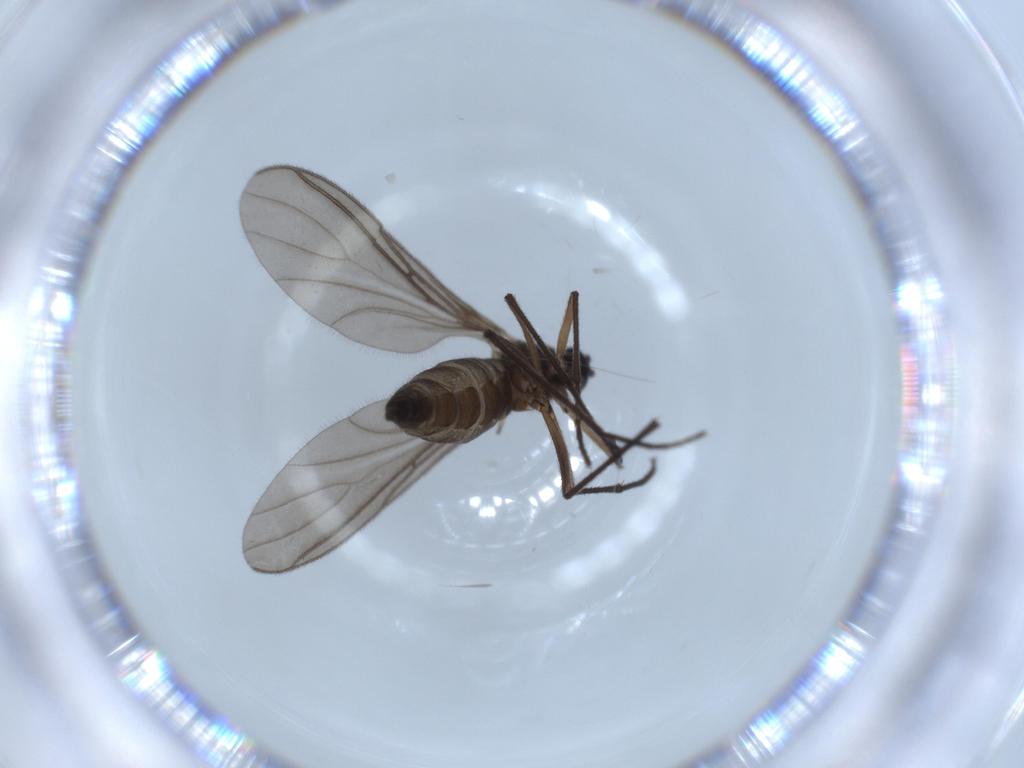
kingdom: Animalia
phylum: Arthropoda
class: Insecta
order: Diptera
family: Sciaridae
